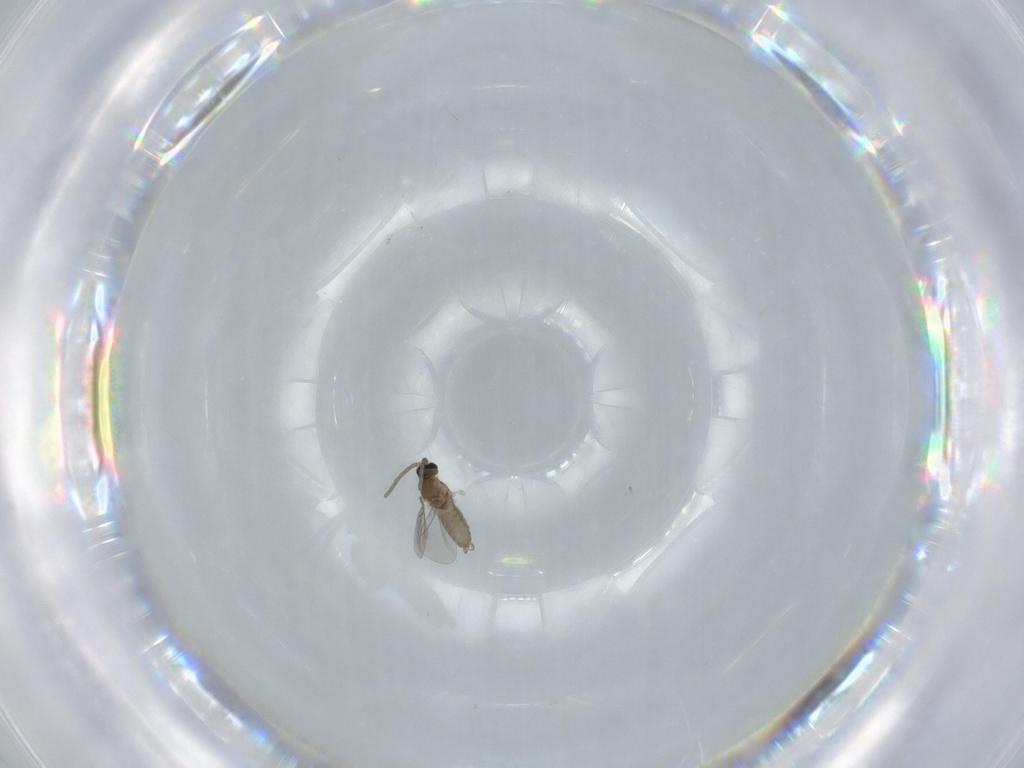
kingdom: Animalia
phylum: Arthropoda
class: Insecta
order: Diptera
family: Cecidomyiidae
